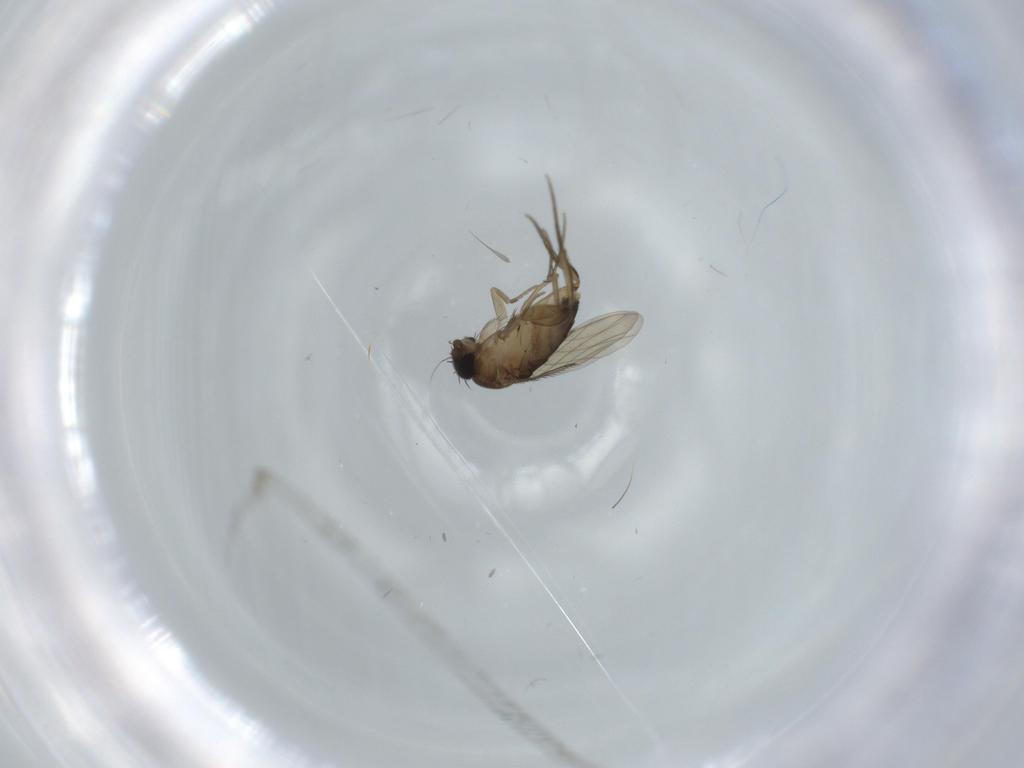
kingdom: Animalia
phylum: Arthropoda
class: Insecta
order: Diptera
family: Phoridae
